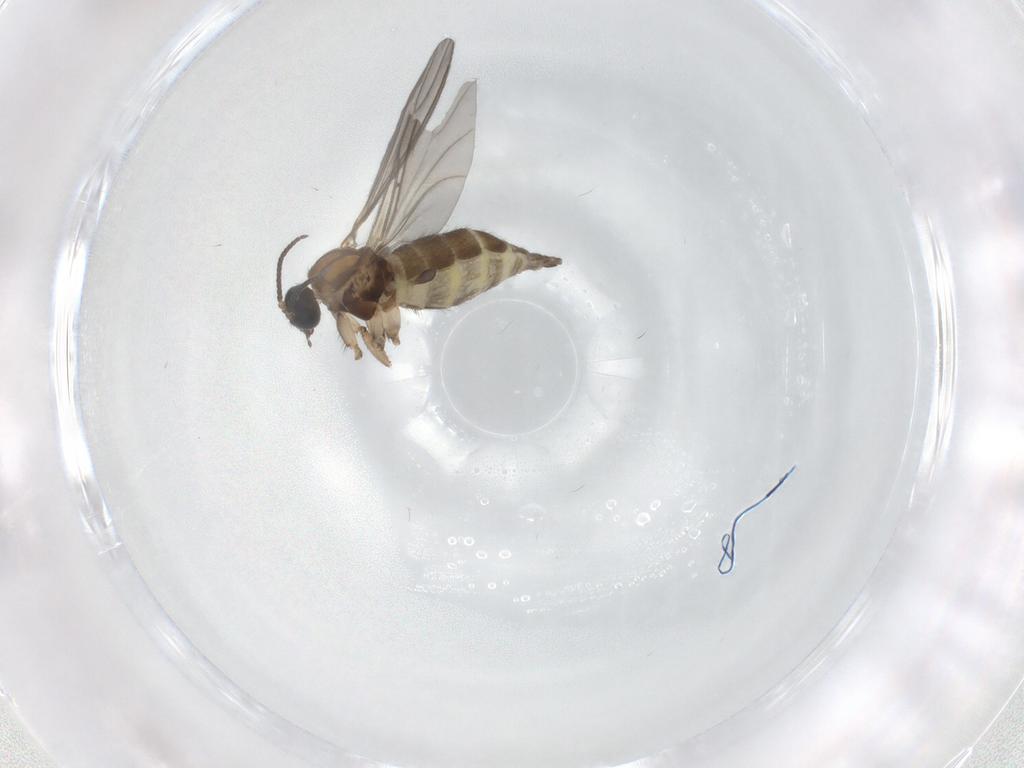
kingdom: Animalia
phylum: Arthropoda
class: Insecta
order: Diptera
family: Sciaridae
